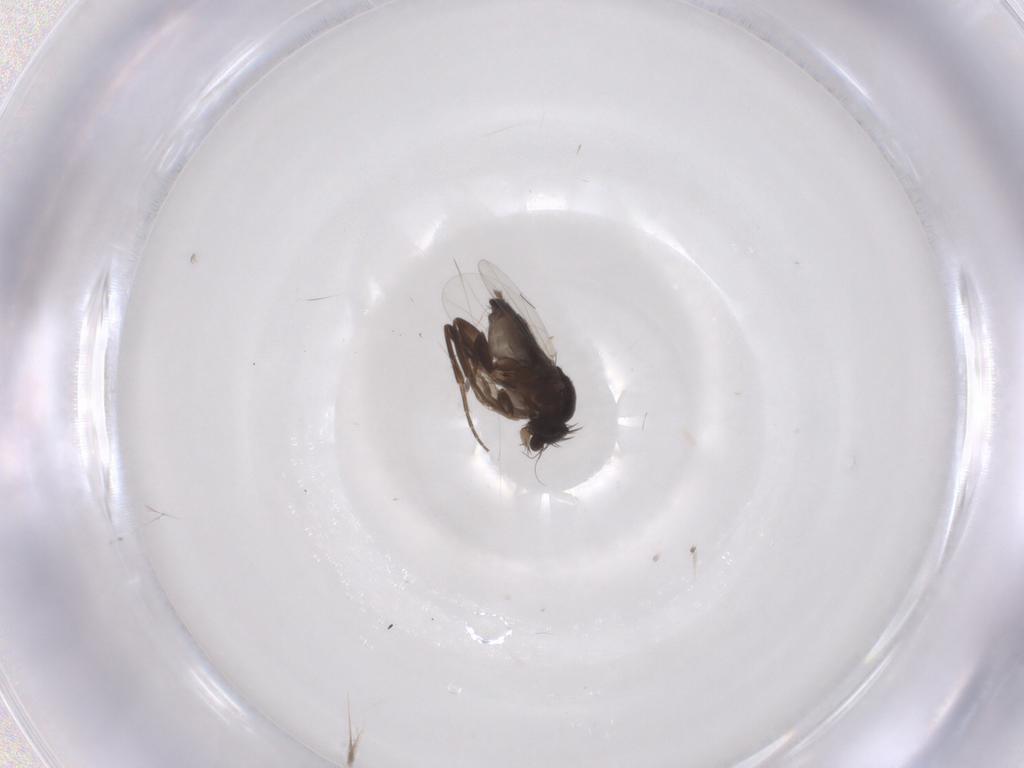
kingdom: Animalia
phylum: Arthropoda
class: Insecta
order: Diptera
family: Phoridae
